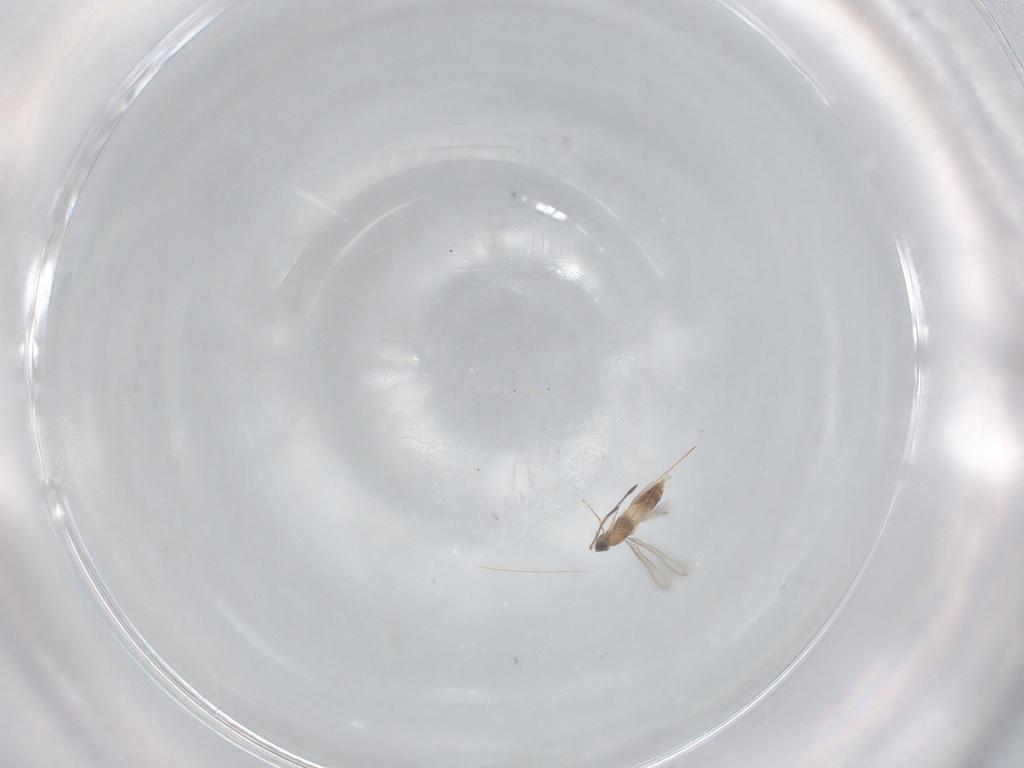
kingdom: Animalia
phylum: Arthropoda
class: Insecta
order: Hymenoptera
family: Mymaridae
